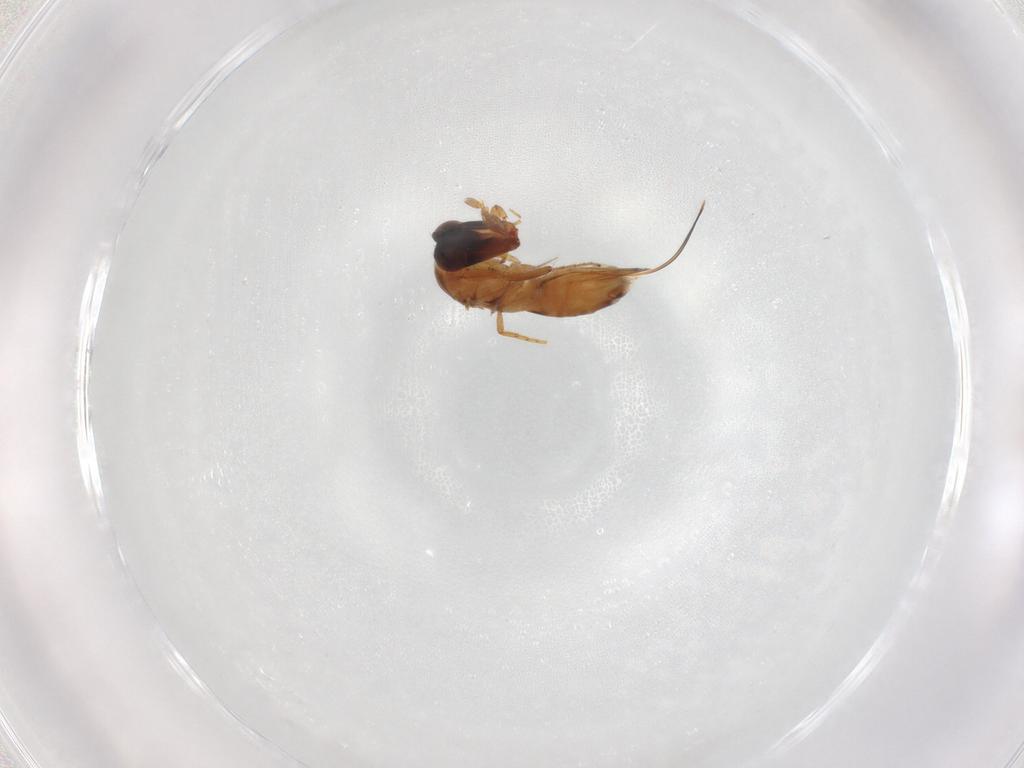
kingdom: Animalia
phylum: Arthropoda
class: Insecta
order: Hymenoptera
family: Agaonidae
